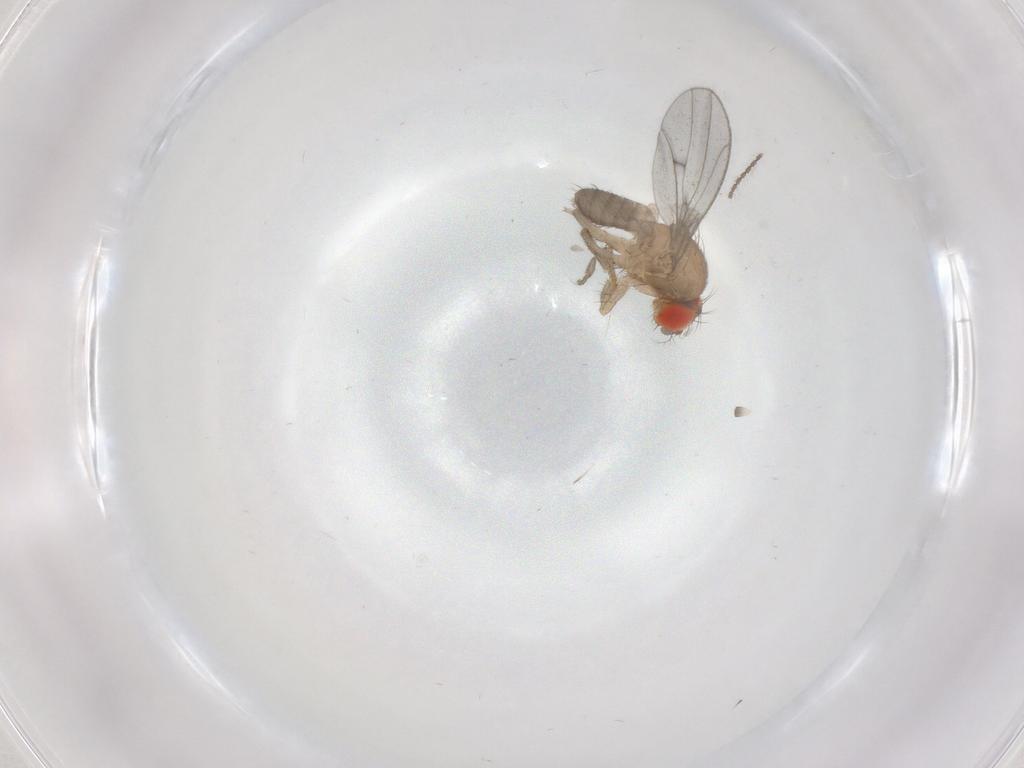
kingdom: Animalia
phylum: Arthropoda
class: Insecta
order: Diptera
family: Drosophilidae
